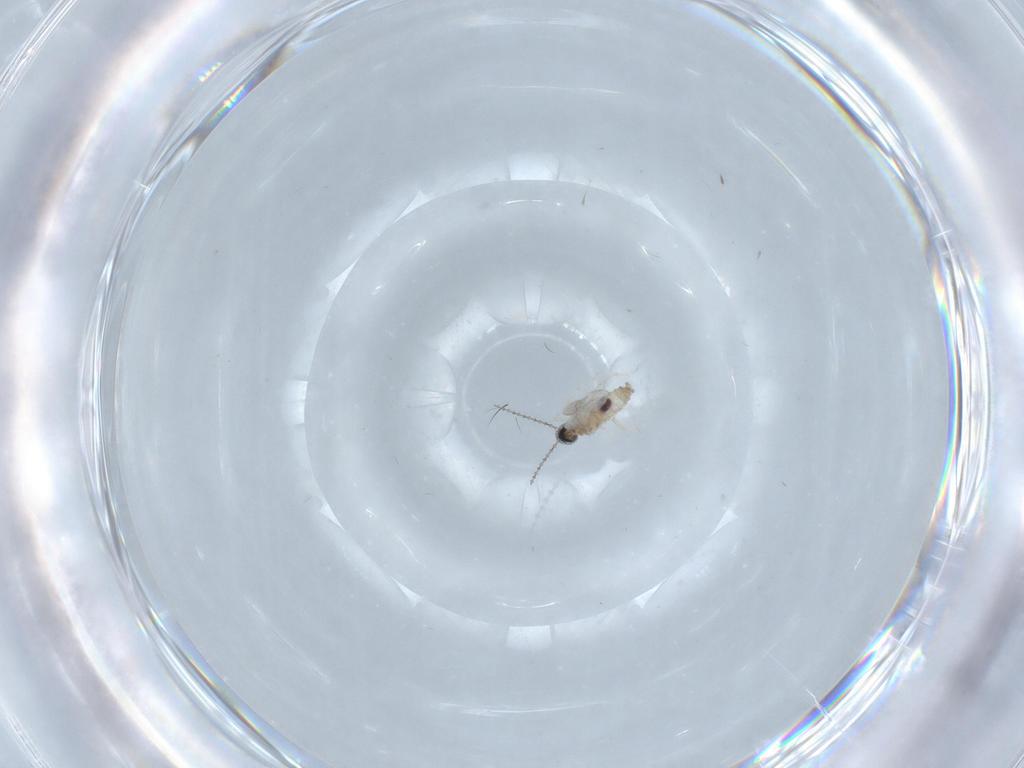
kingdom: Animalia
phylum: Arthropoda
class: Insecta
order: Diptera
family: Cecidomyiidae
